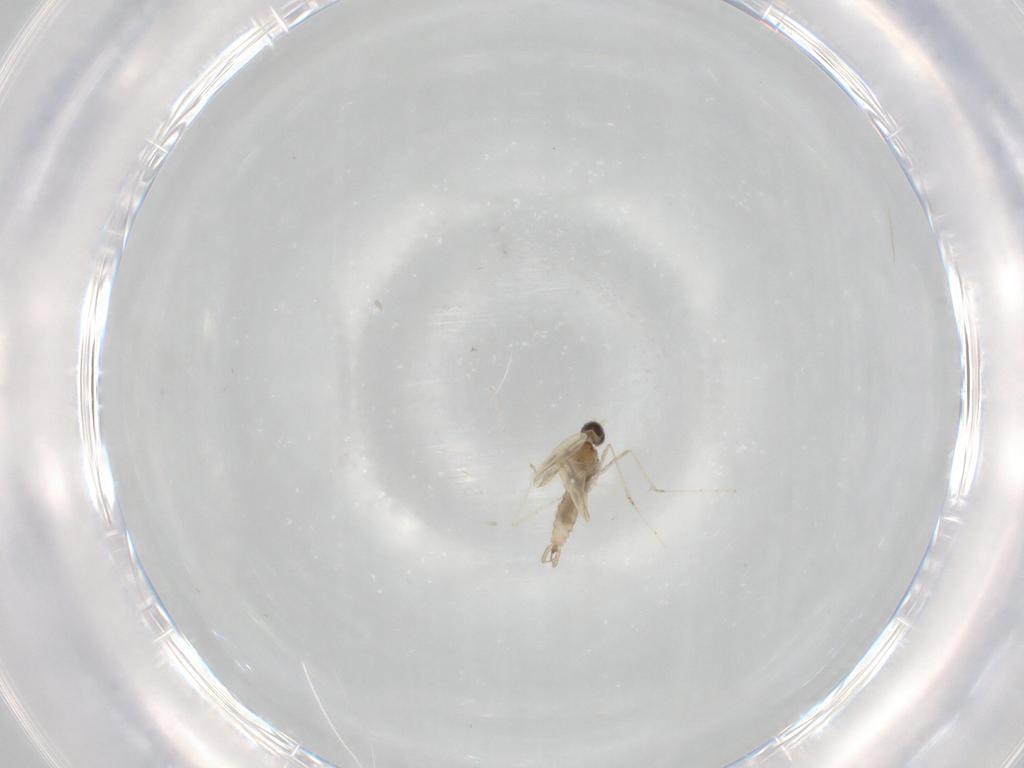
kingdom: Animalia
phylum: Arthropoda
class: Insecta
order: Diptera
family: Cecidomyiidae
